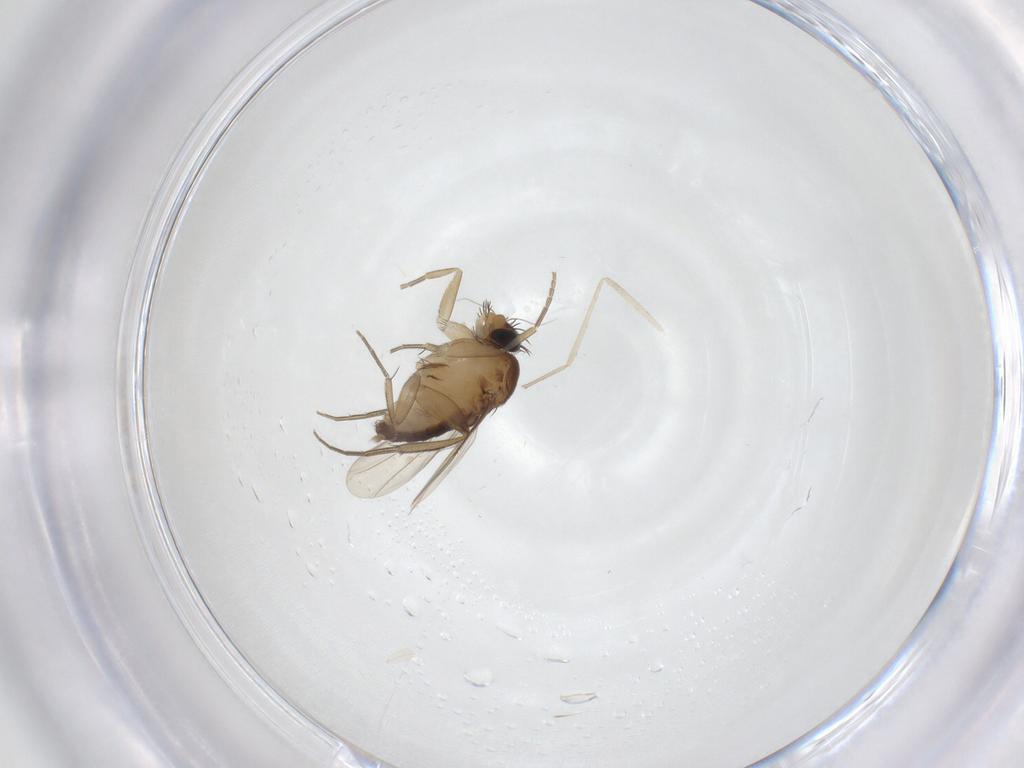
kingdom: Animalia
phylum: Arthropoda
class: Insecta
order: Diptera
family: Phoridae
